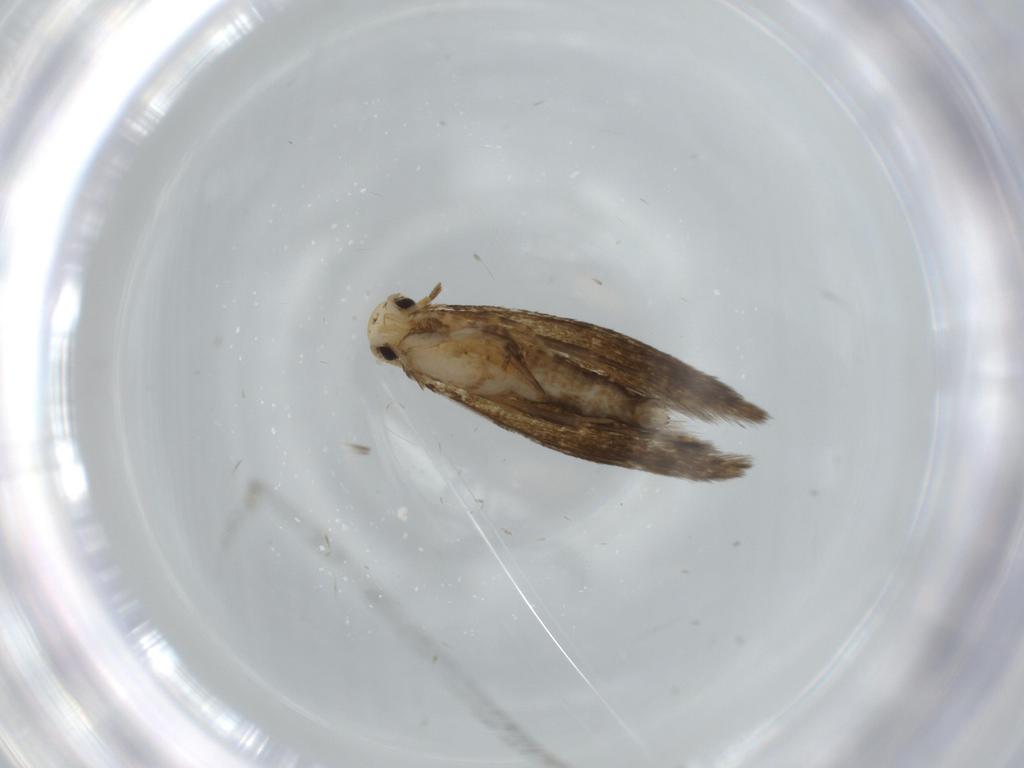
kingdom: Animalia
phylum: Arthropoda
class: Insecta
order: Lepidoptera
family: Tineidae
